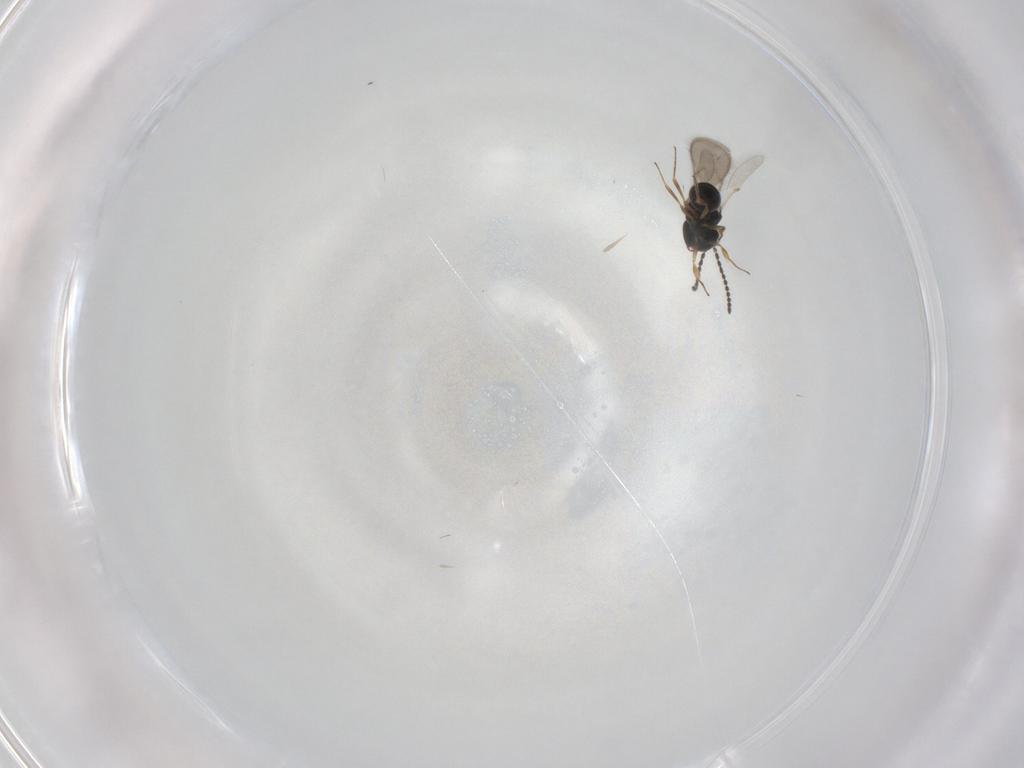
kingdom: Animalia
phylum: Arthropoda
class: Insecta
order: Hymenoptera
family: Scelionidae
